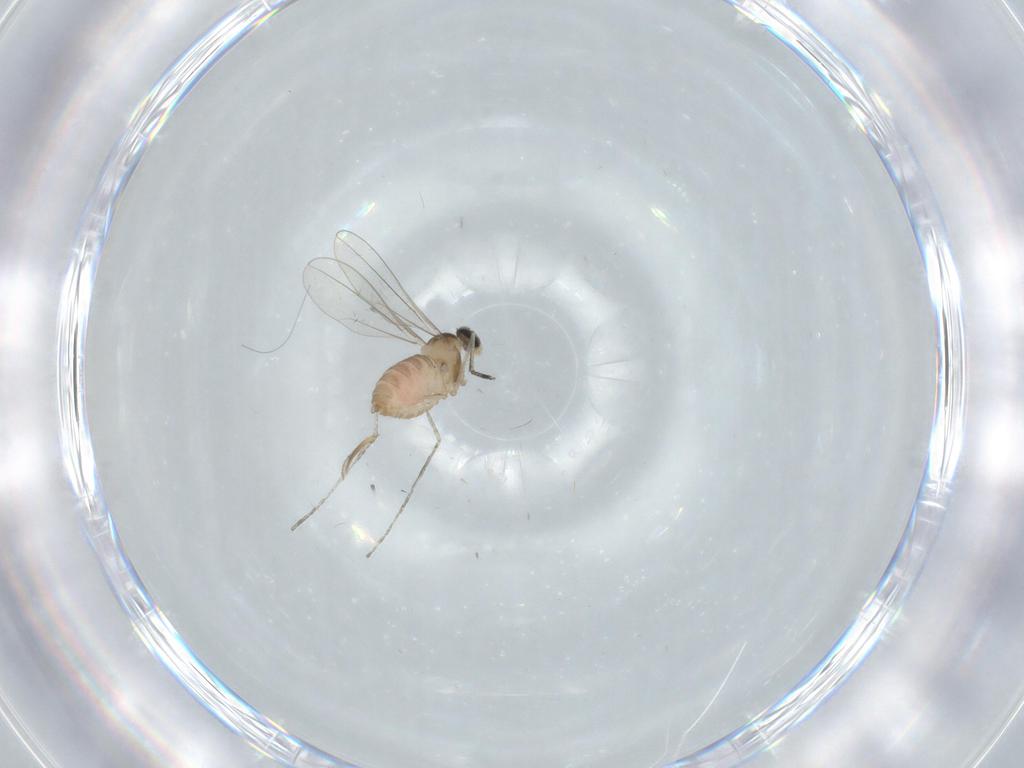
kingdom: Animalia
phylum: Arthropoda
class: Insecta
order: Diptera
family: Cecidomyiidae
